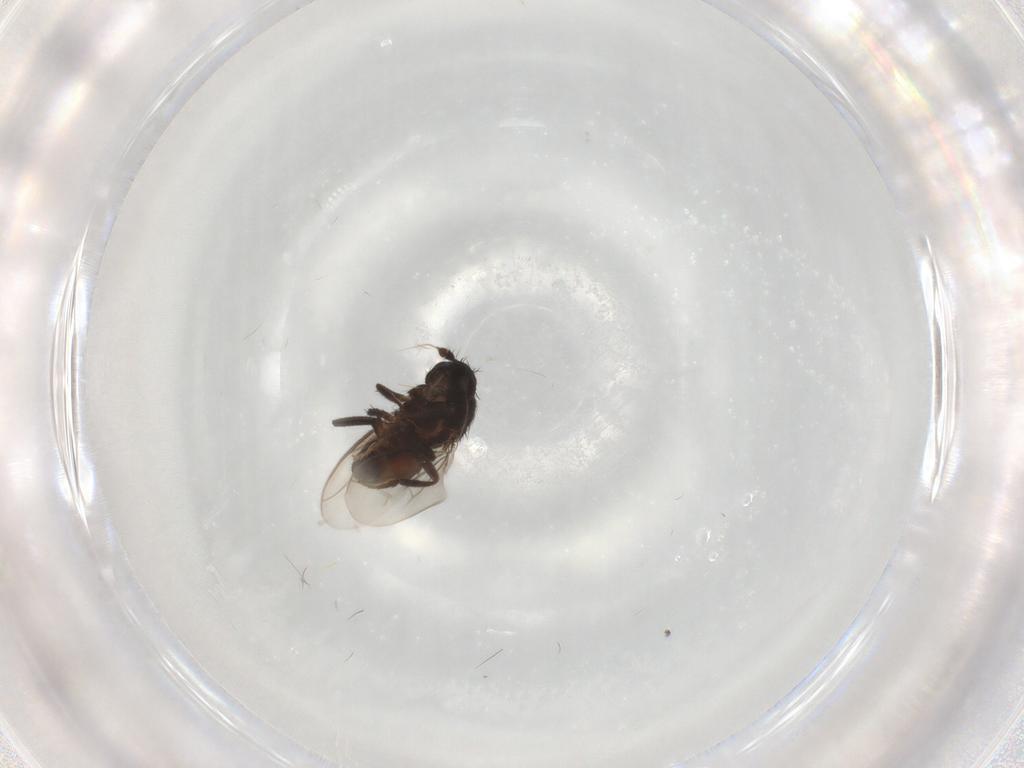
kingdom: Animalia
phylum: Arthropoda
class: Insecta
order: Diptera
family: Sphaeroceridae
